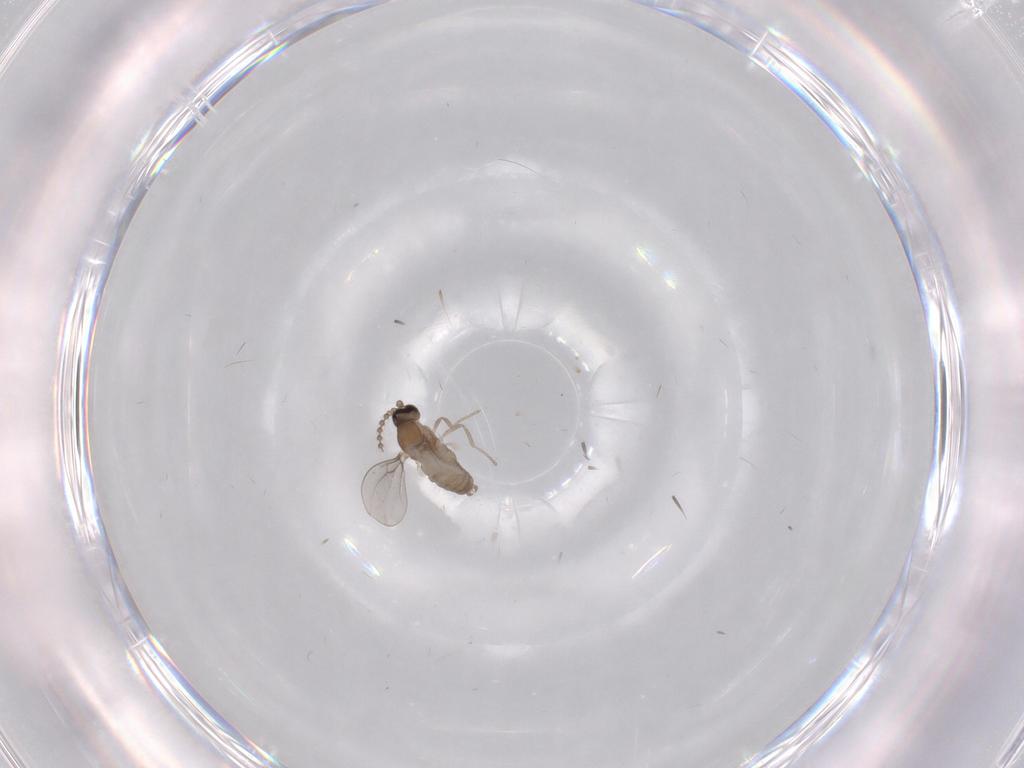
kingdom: Animalia
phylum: Arthropoda
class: Insecta
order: Diptera
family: Cecidomyiidae
